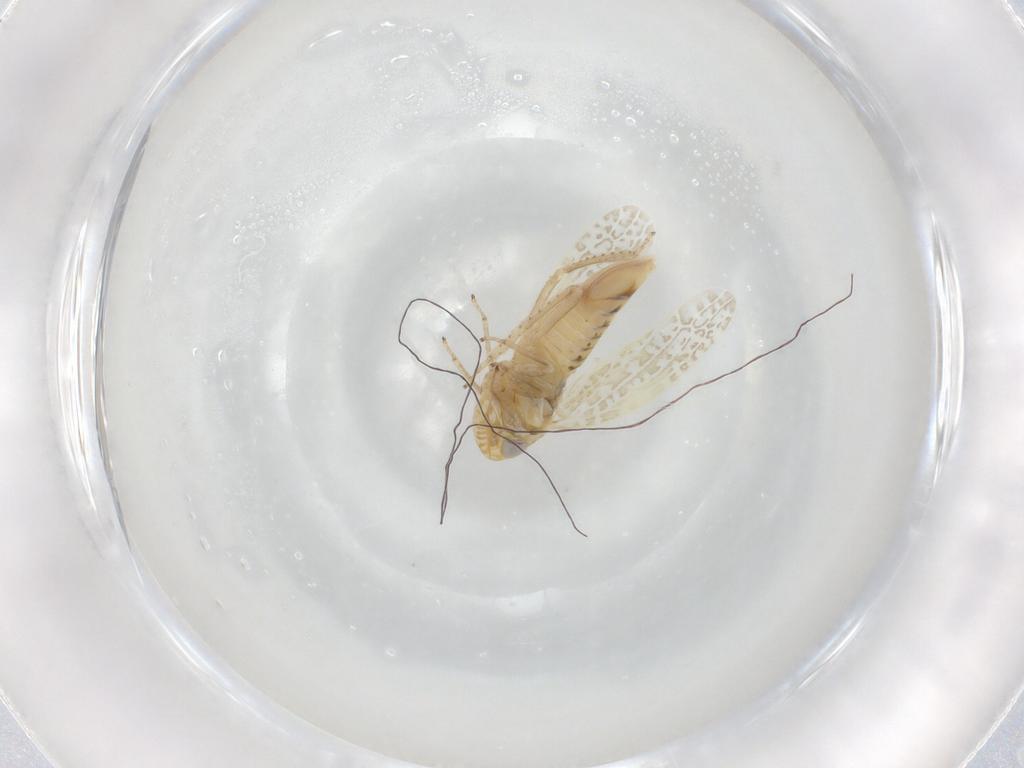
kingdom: Animalia
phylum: Arthropoda
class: Insecta
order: Hemiptera
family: Cicadellidae
